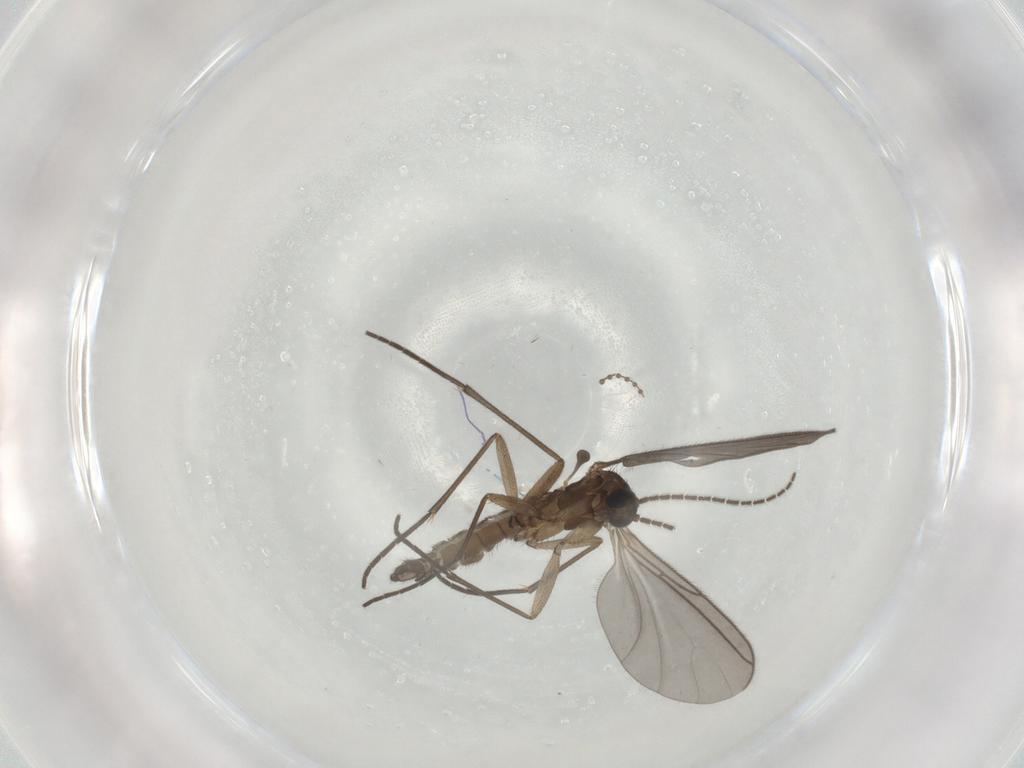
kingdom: Animalia
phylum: Arthropoda
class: Insecta
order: Diptera
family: Sciaridae
